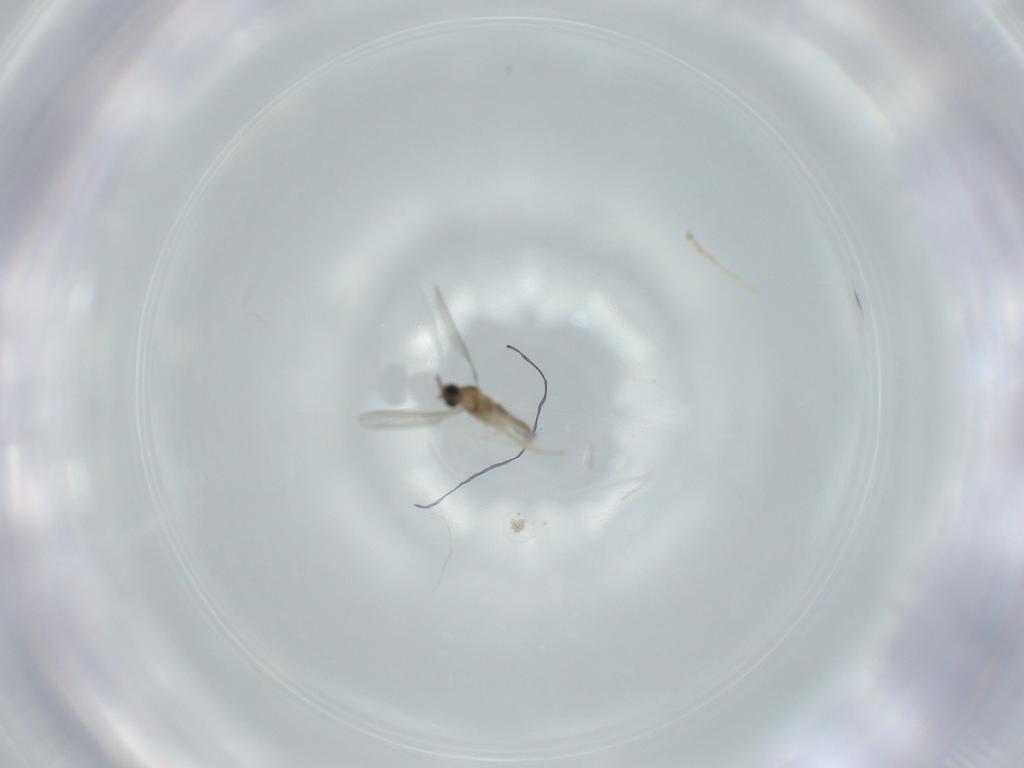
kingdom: Animalia
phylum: Arthropoda
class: Insecta
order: Diptera
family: Cecidomyiidae
